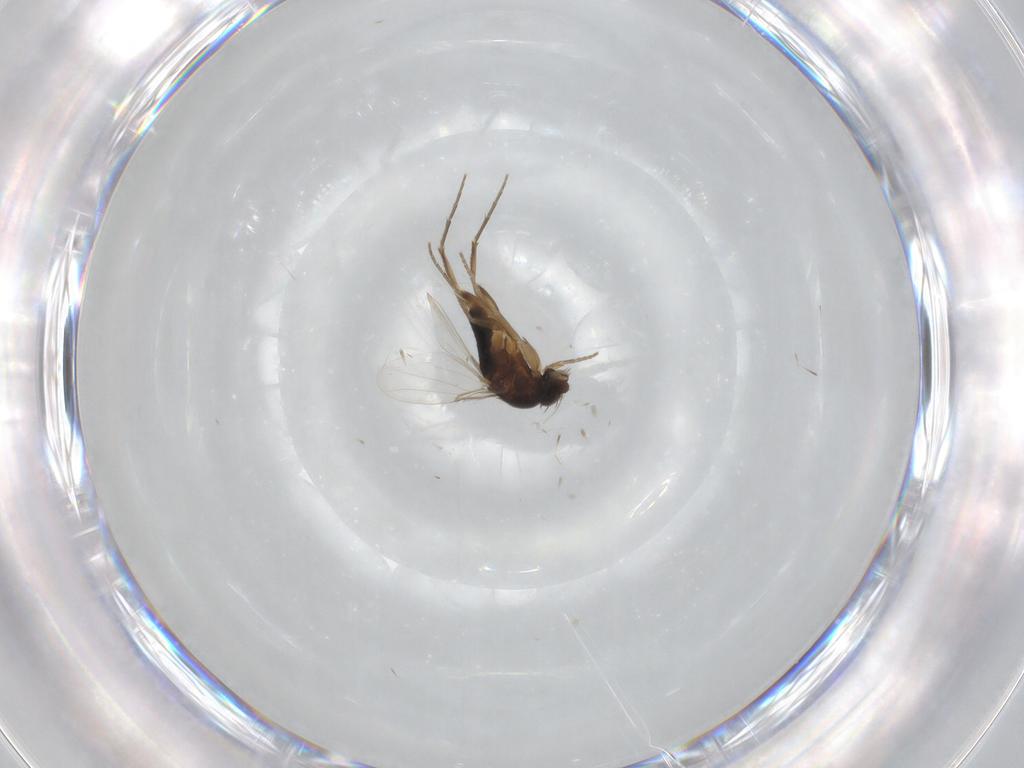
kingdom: Animalia
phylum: Arthropoda
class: Insecta
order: Diptera
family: Phoridae
